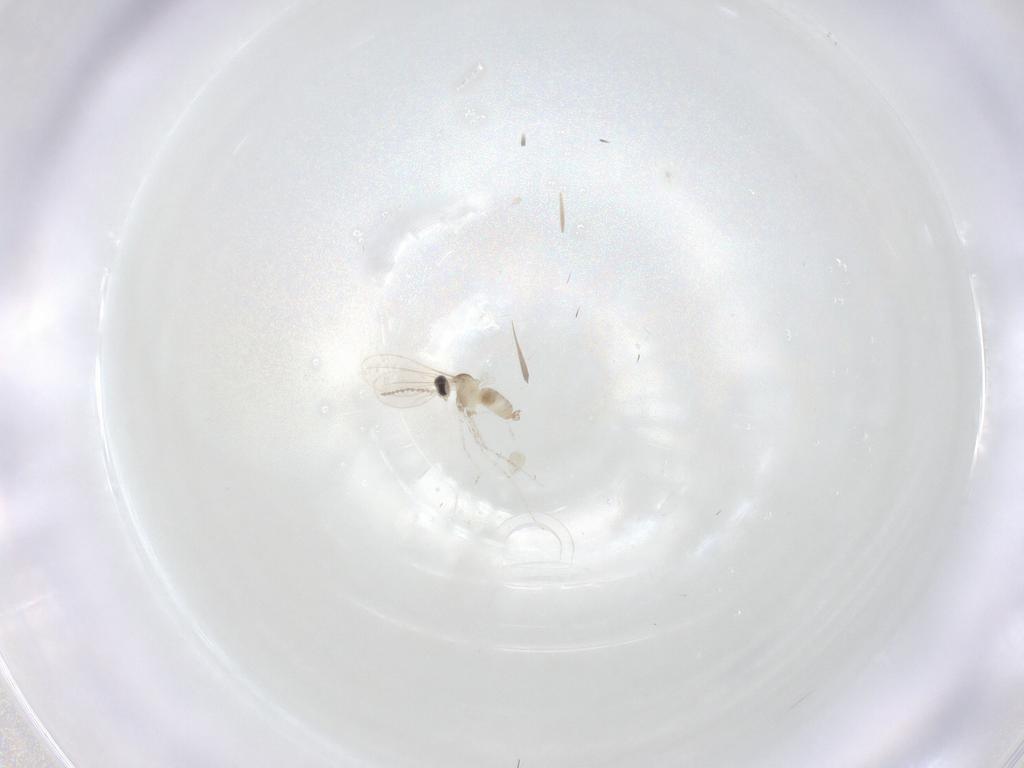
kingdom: Animalia
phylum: Arthropoda
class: Insecta
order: Diptera
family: Cecidomyiidae
